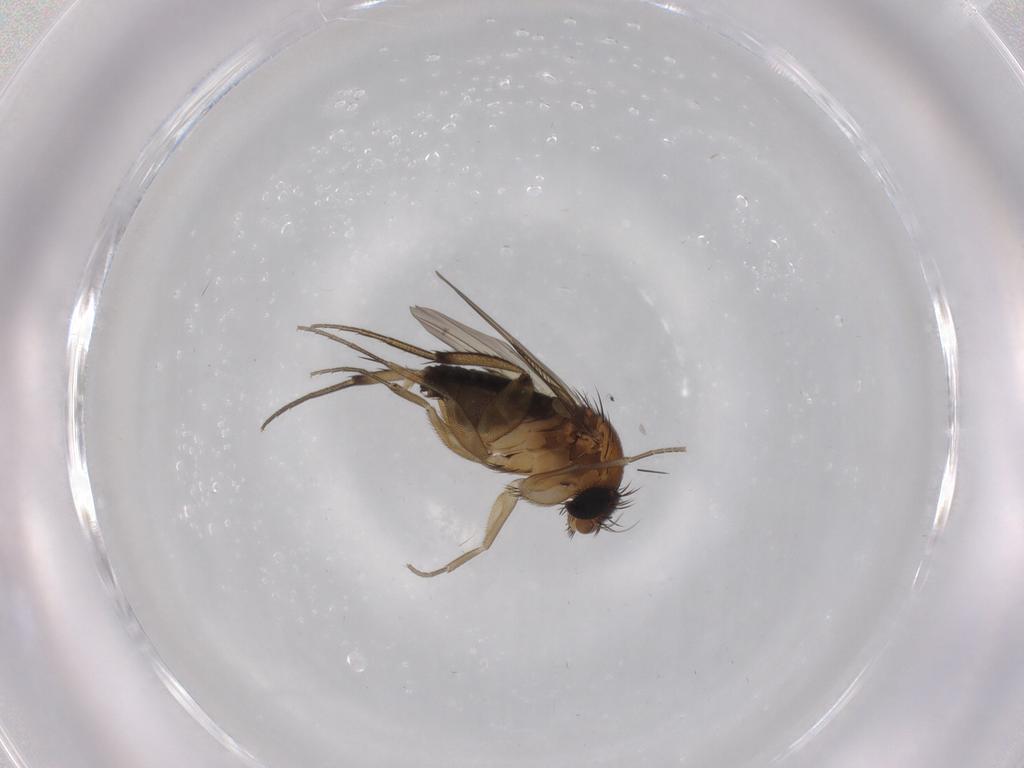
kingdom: Animalia
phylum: Arthropoda
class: Insecta
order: Diptera
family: Cecidomyiidae
